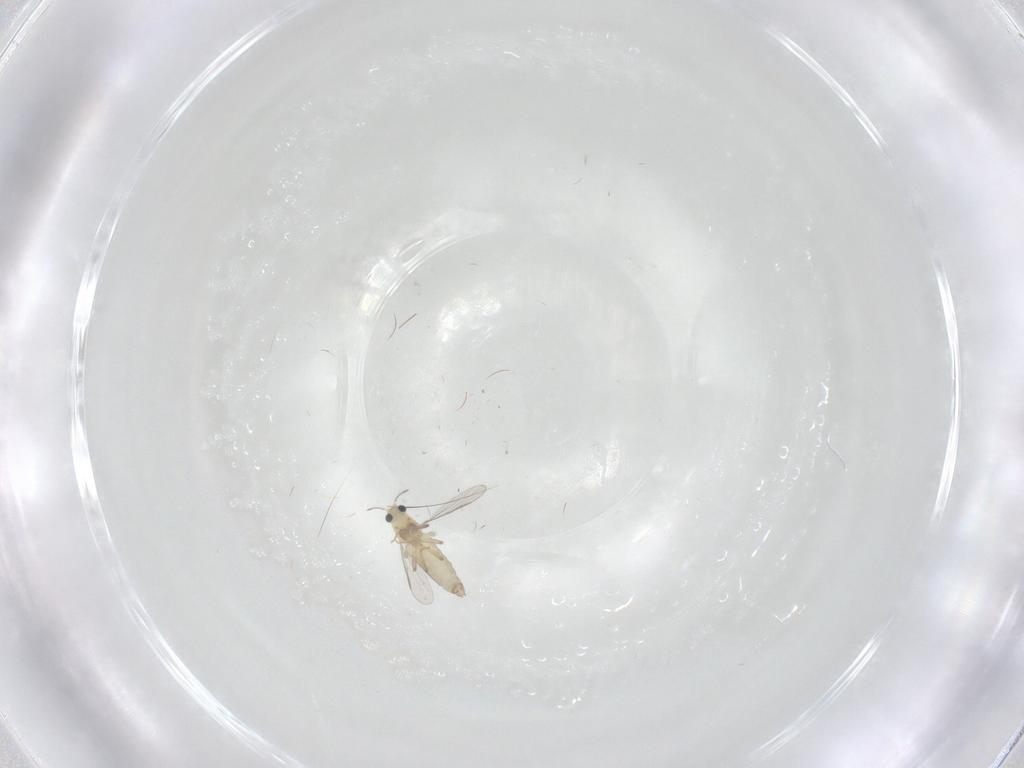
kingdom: Animalia
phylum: Arthropoda
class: Insecta
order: Diptera
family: Chironomidae
